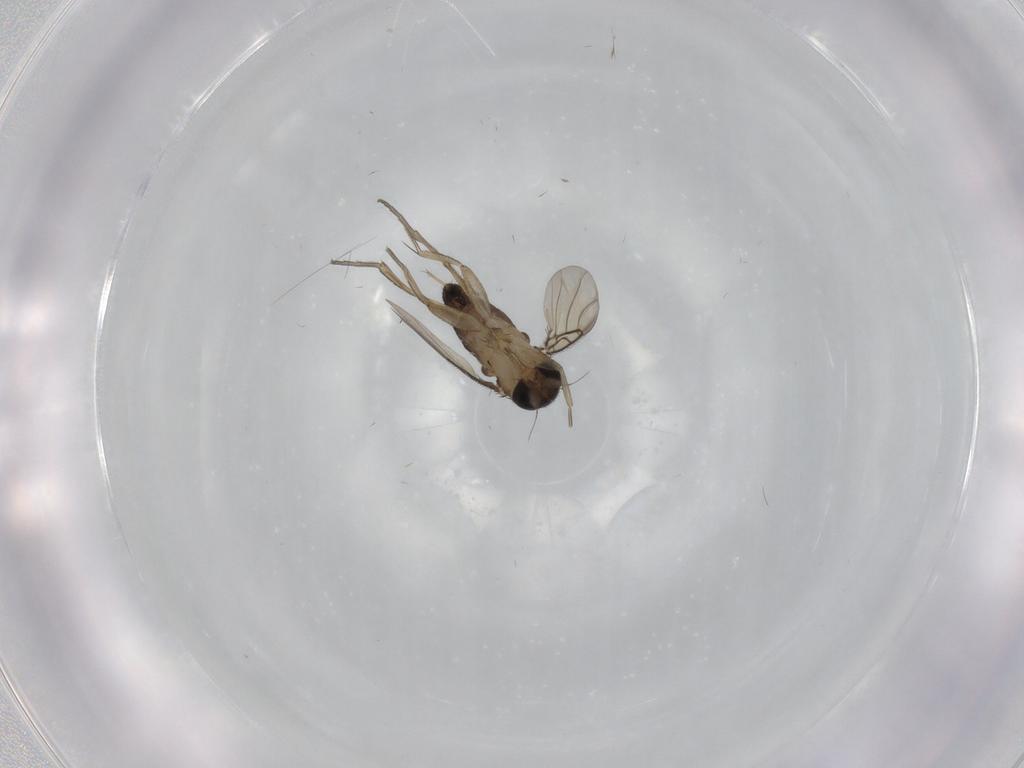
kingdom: Animalia
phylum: Arthropoda
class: Insecta
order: Diptera
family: Phoridae
